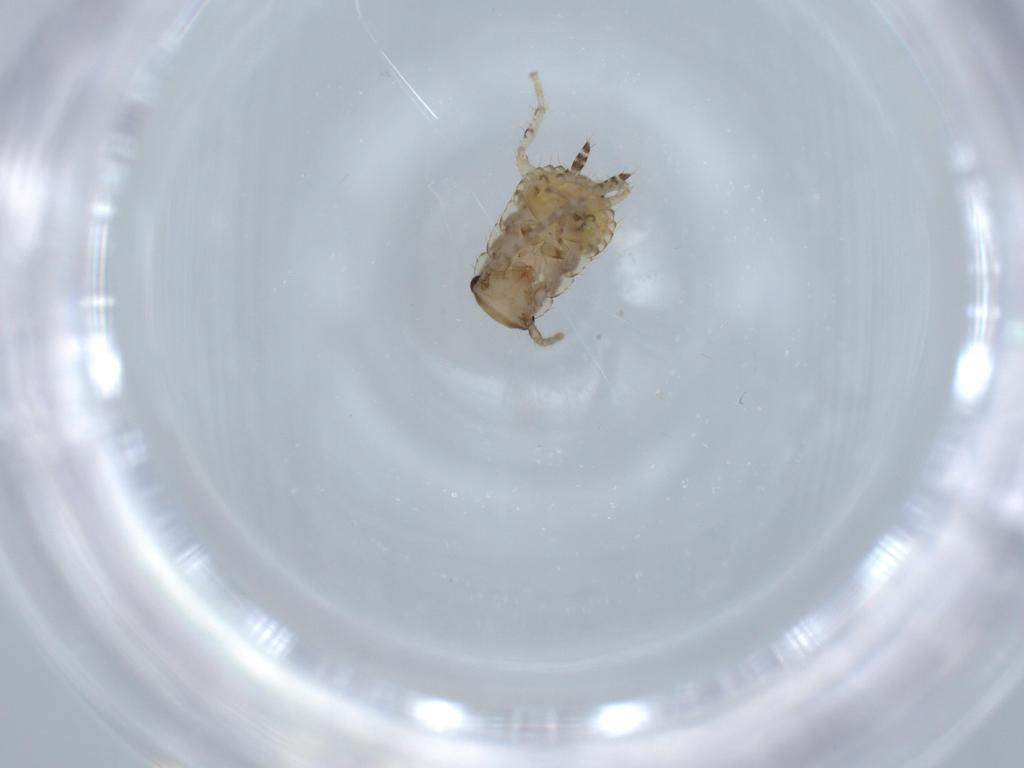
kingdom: Animalia
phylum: Arthropoda
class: Insecta
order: Blattodea
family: Ectobiidae
